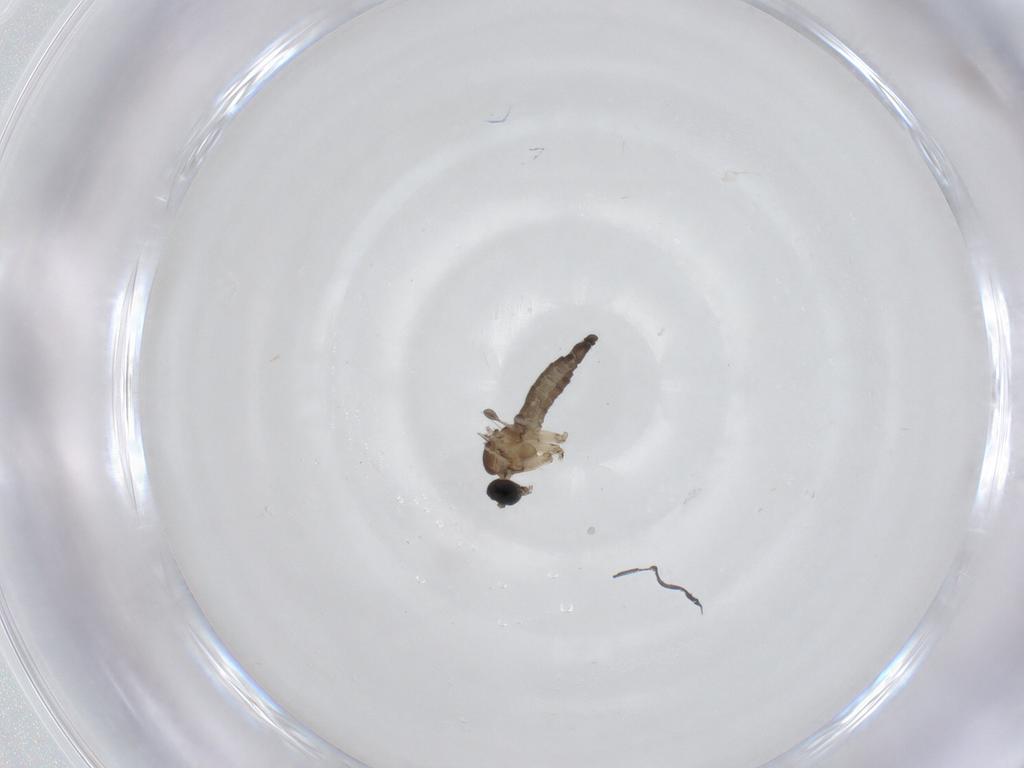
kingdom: Animalia
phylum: Arthropoda
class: Insecta
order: Diptera
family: Sciaridae
